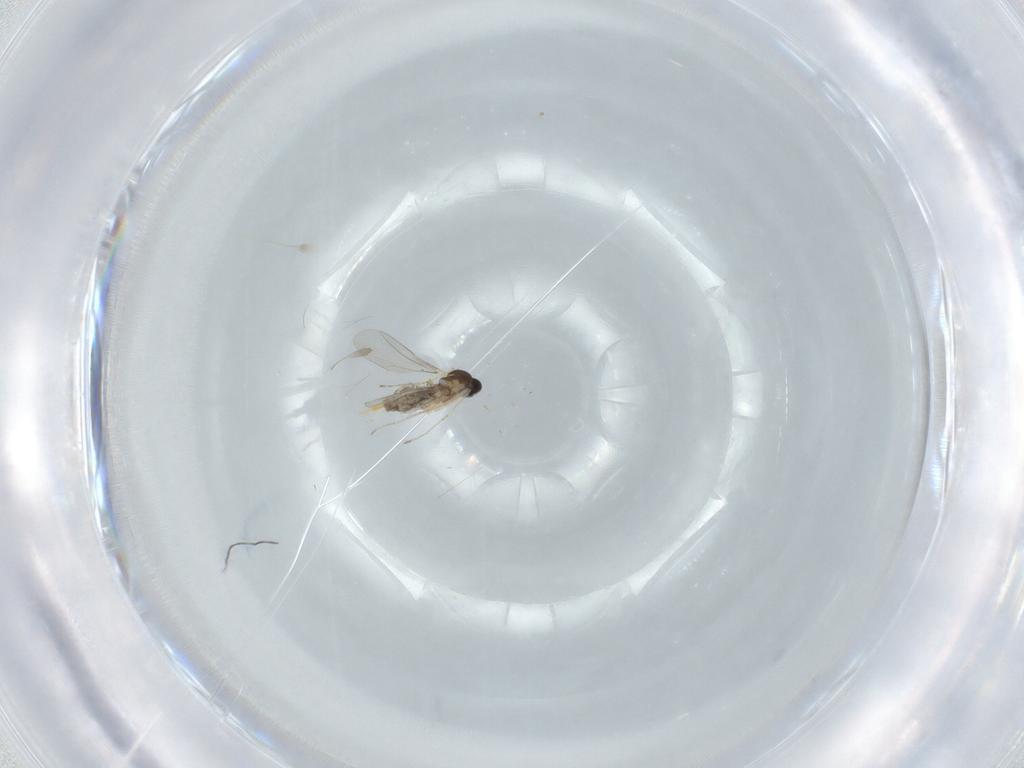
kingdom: Animalia
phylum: Arthropoda
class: Insecta
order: Diptera
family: Cecidomyiidae
